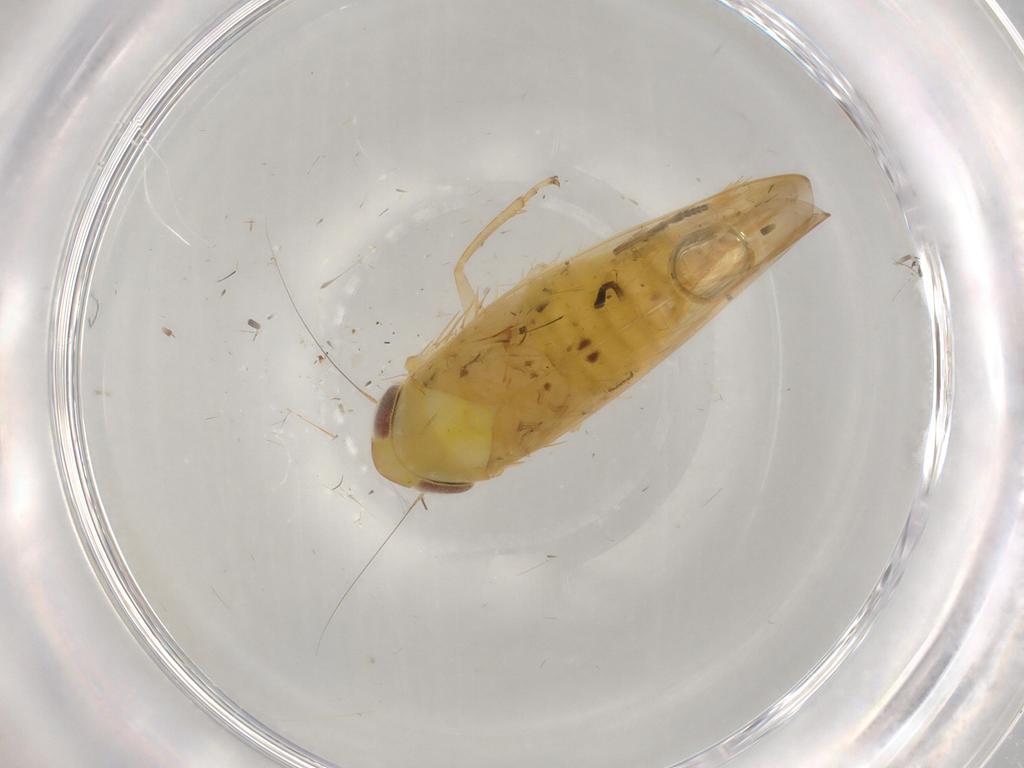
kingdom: Animalia
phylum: Arthropoda
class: Insecta
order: Hemiptera
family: Cicadellidae
